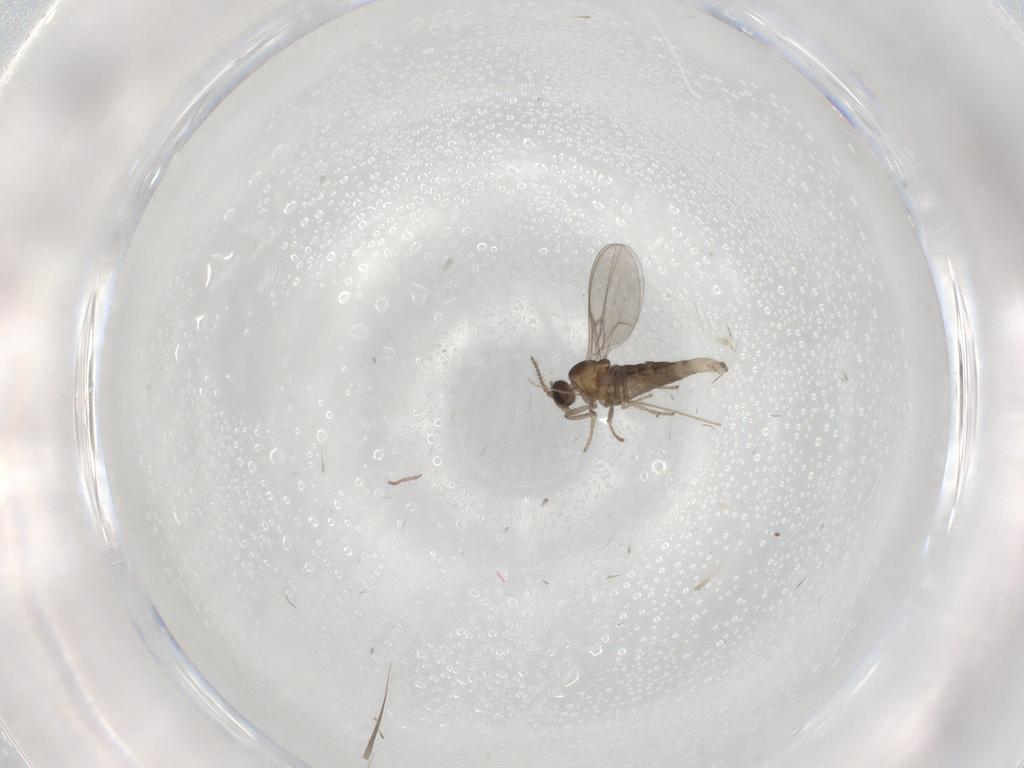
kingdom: Animalia
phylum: Arthropoda
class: Insecta
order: Diptera
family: Cecidomyiidae
